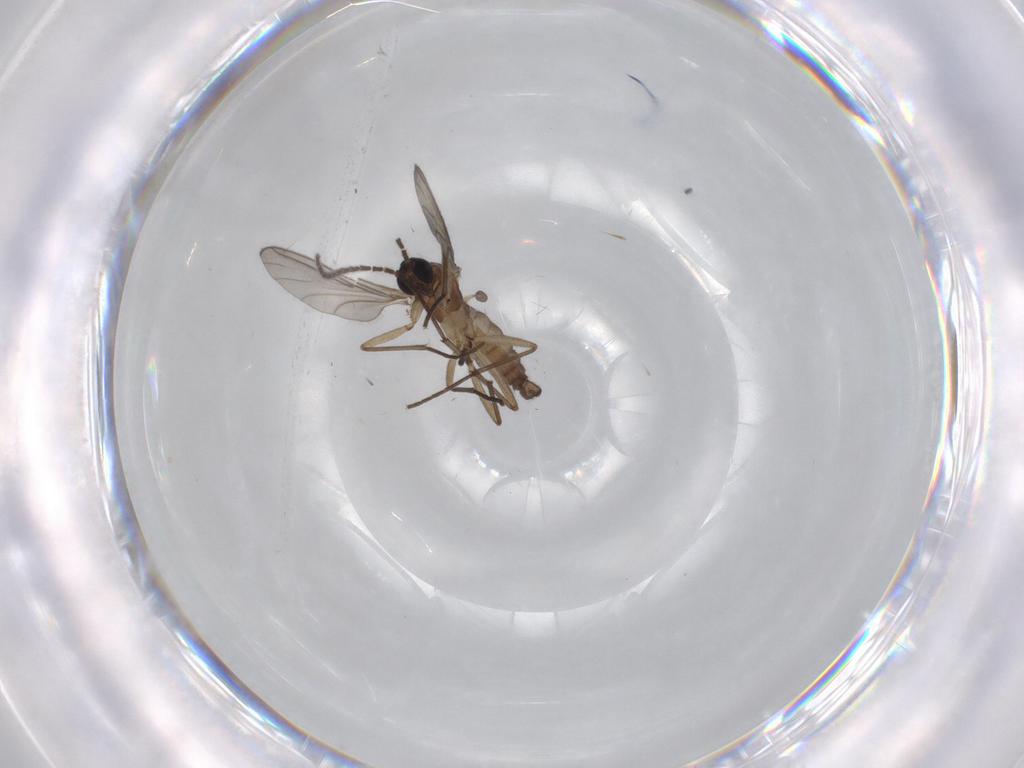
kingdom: Animalia
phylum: Arthropoda
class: Insecta
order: Diptera
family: Sciaridae
